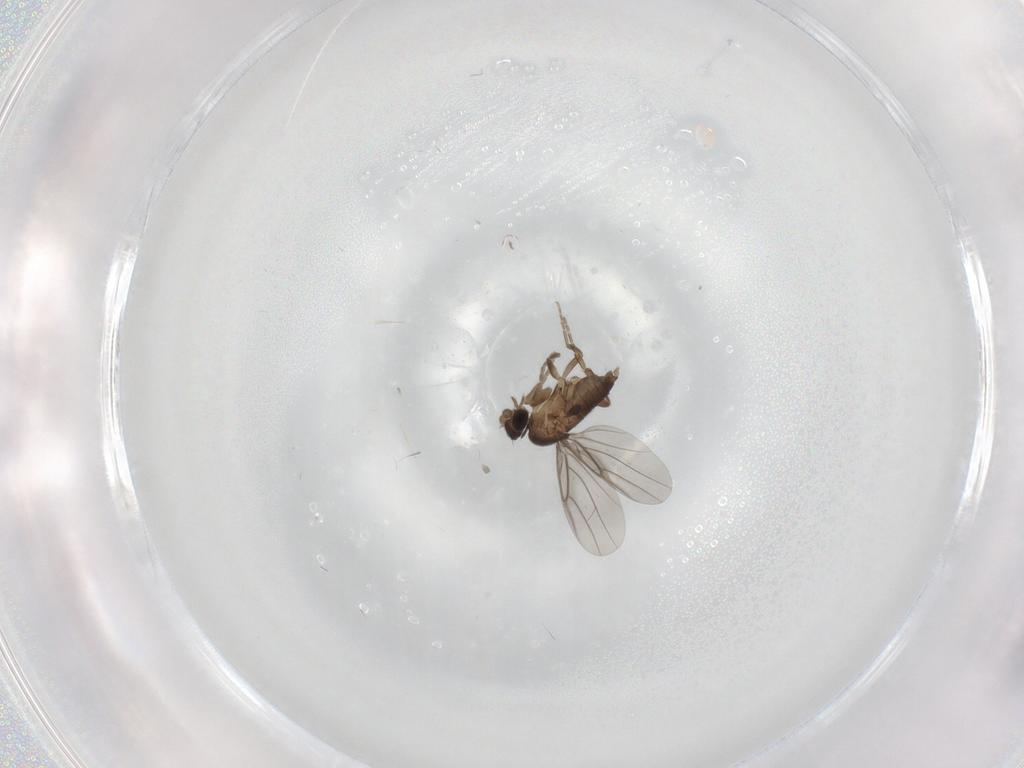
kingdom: Animalia
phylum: Arthropoda
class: Insecta
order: Diptera
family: Phoridae
